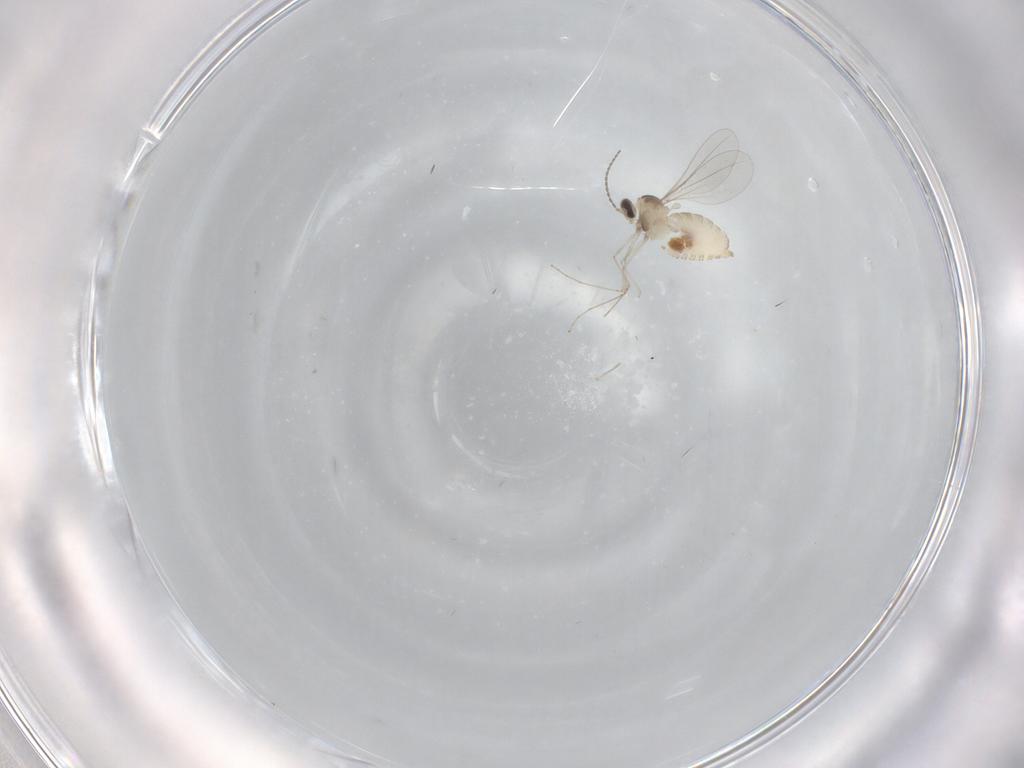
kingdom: Animalia
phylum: Arthropoda
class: Insecta
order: Diptera
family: Cecidomyiidae
